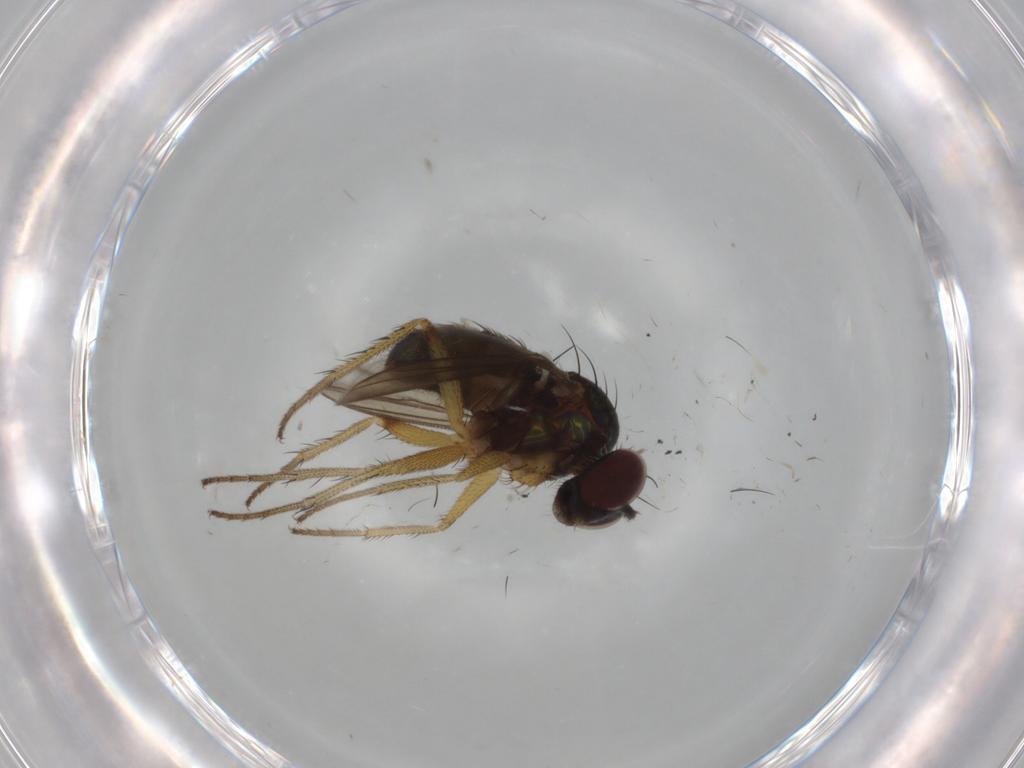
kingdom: Animalia
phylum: Arthropoda
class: Insecta
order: Diptera
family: Dolichopodidae
